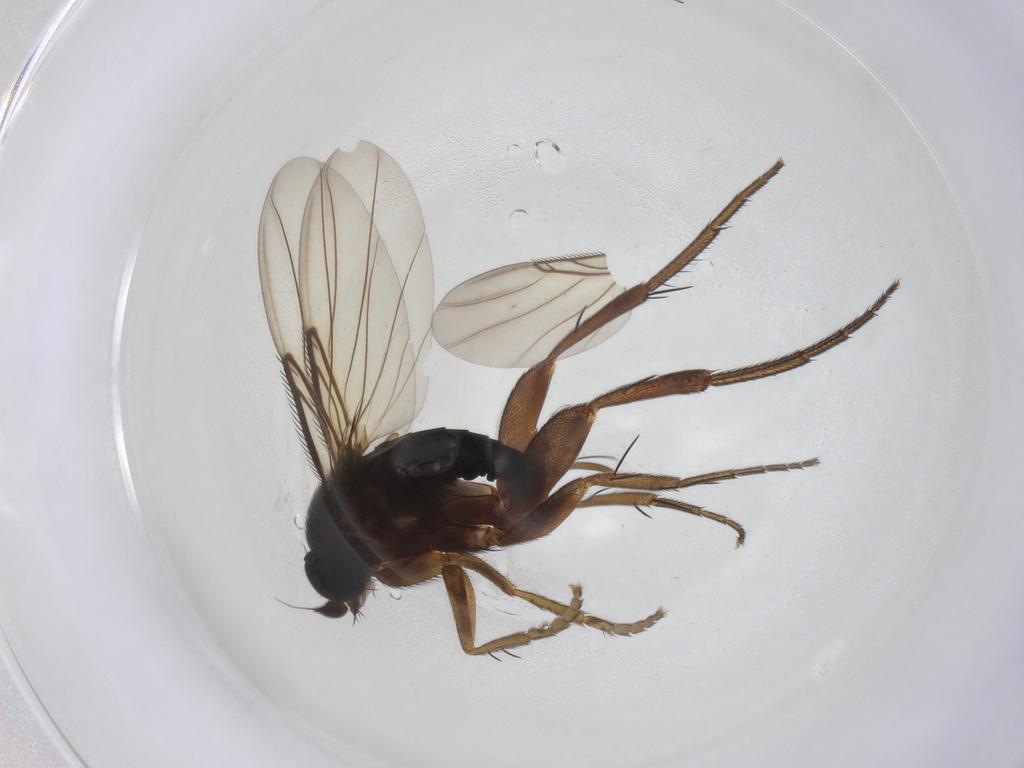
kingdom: Animalia
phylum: Arthropoda
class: Insecta
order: Diptera
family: Phoridae
